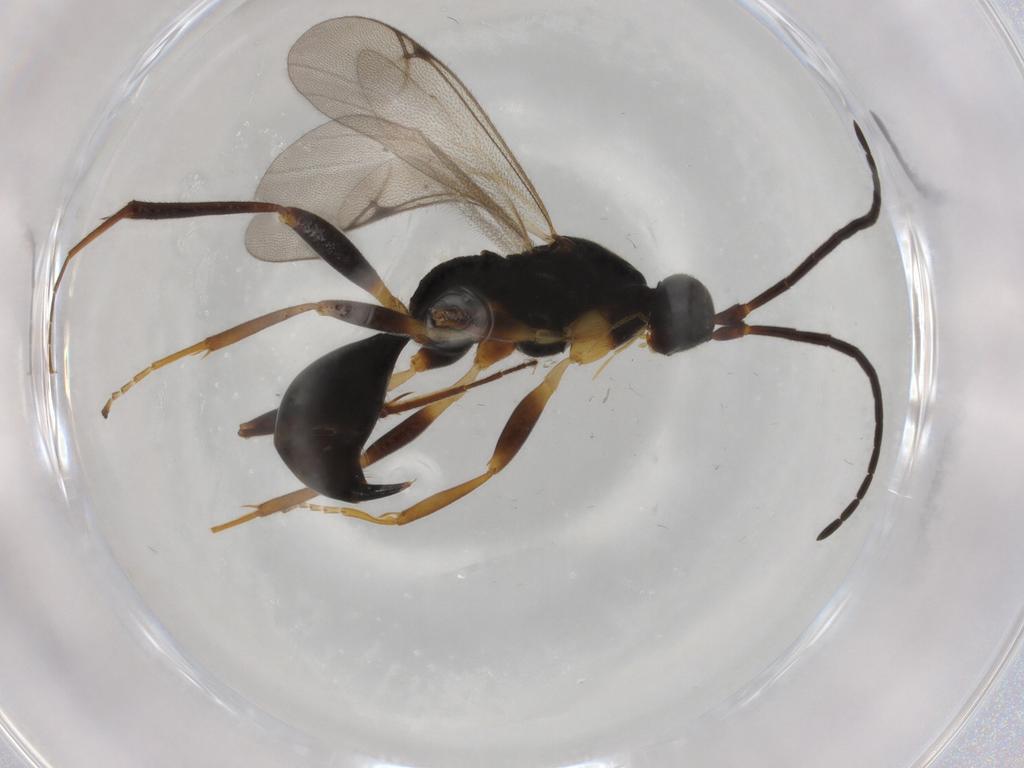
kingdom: Animalia
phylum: Arthropoda
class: Insecta
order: Hymenoptera
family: Proctotrupidae
